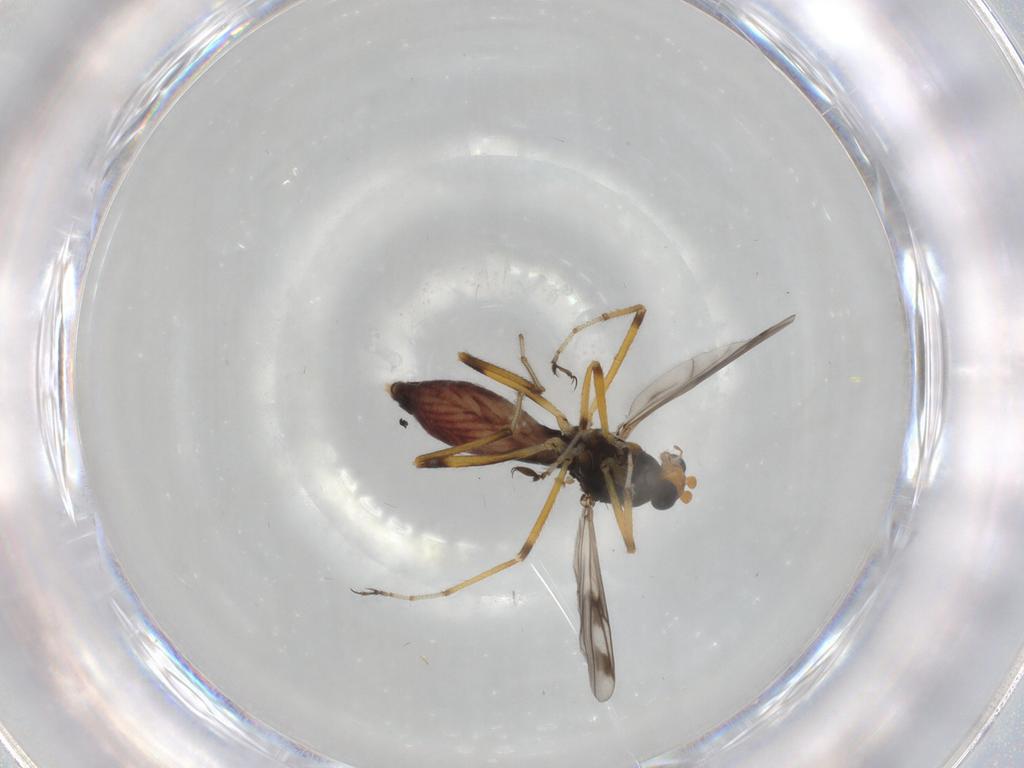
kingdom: Animalia
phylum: Arthropoda
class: Insecta
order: Diptera
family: Ceratopogonidae
